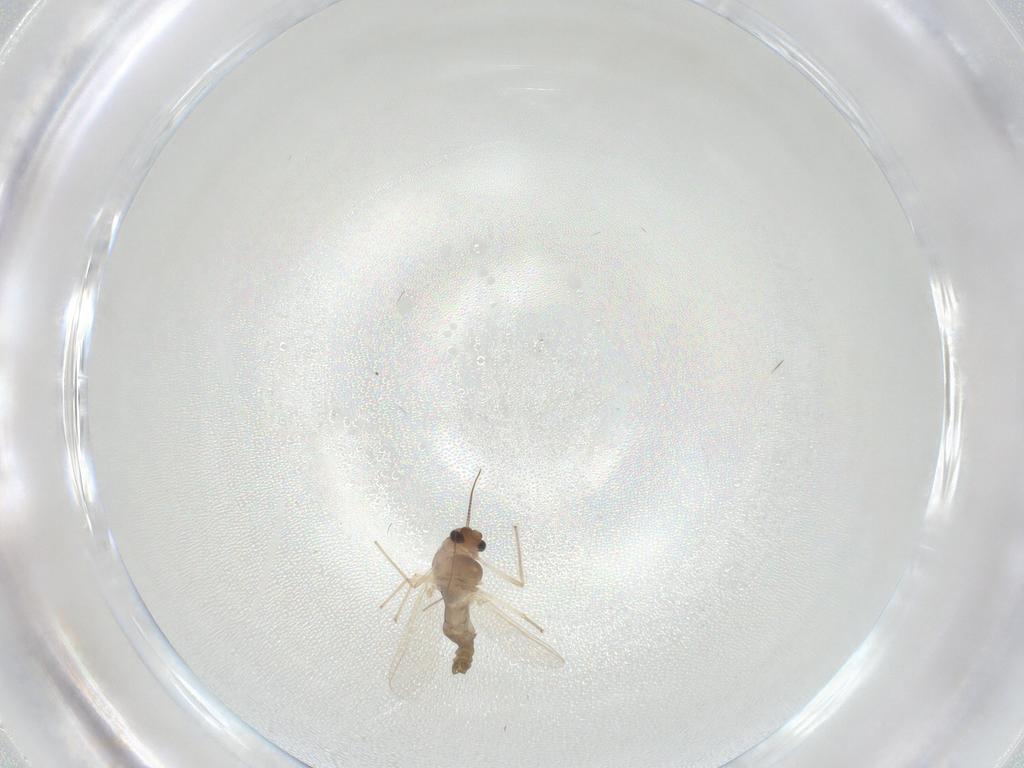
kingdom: Animalia
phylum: Arthropoda
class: Insecta
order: Diptera
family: Chironomidae
